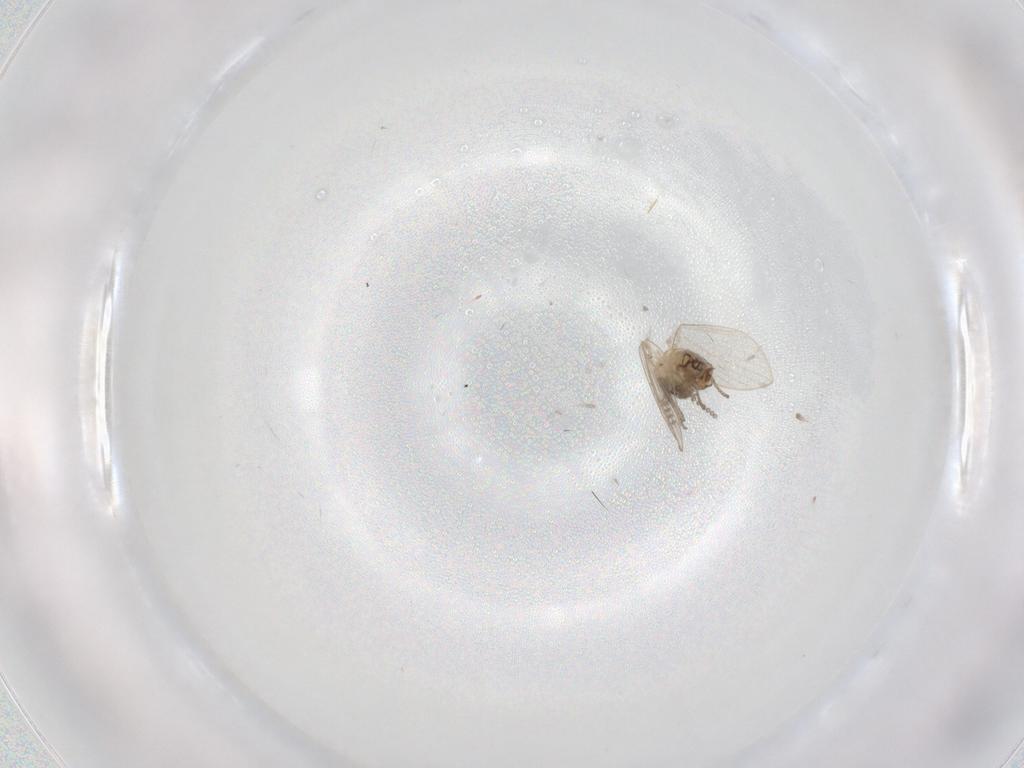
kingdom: Animalia
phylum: Arthropoda
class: Insecta
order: Diptera
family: Psychodidae
